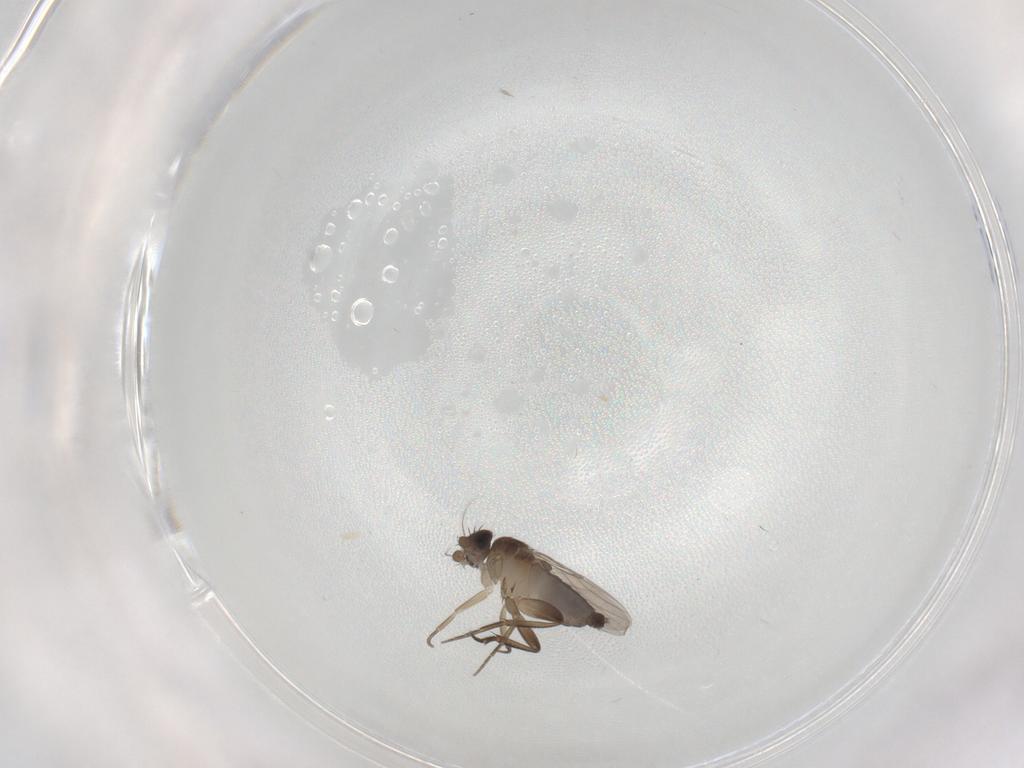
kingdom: Animalia
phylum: Arthropoda
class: Insecta
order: Diptera
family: Phoridae
